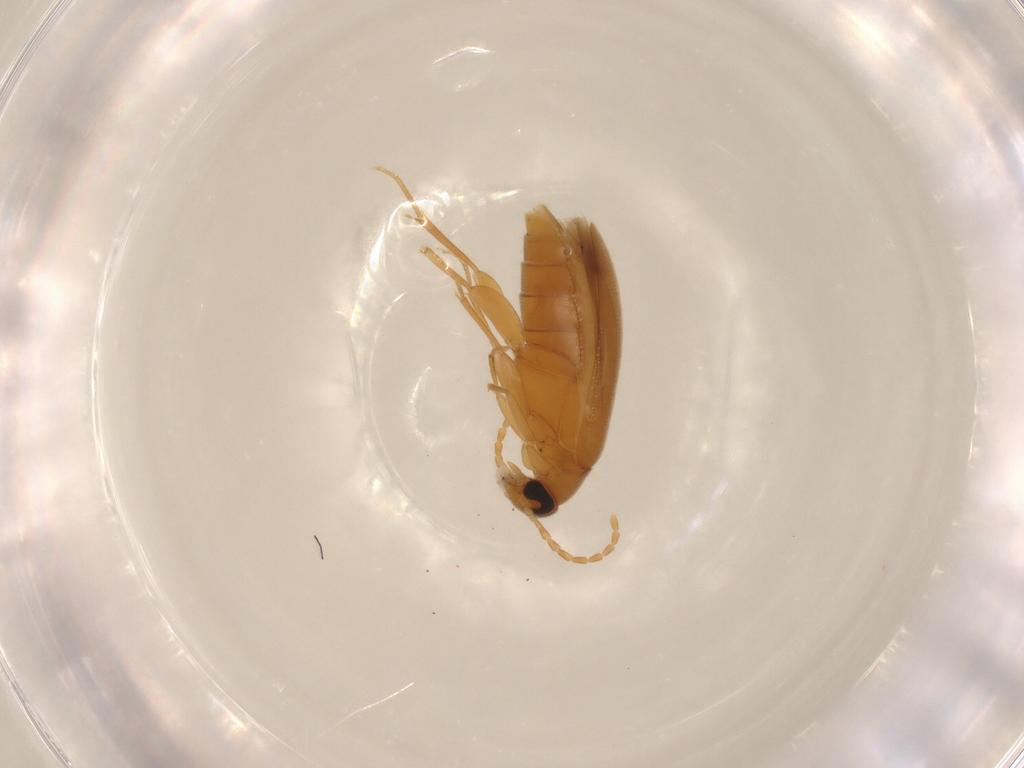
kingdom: Animalia
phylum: Arthropoda
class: Insecta
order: Coleoptera
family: Scraptiidae
